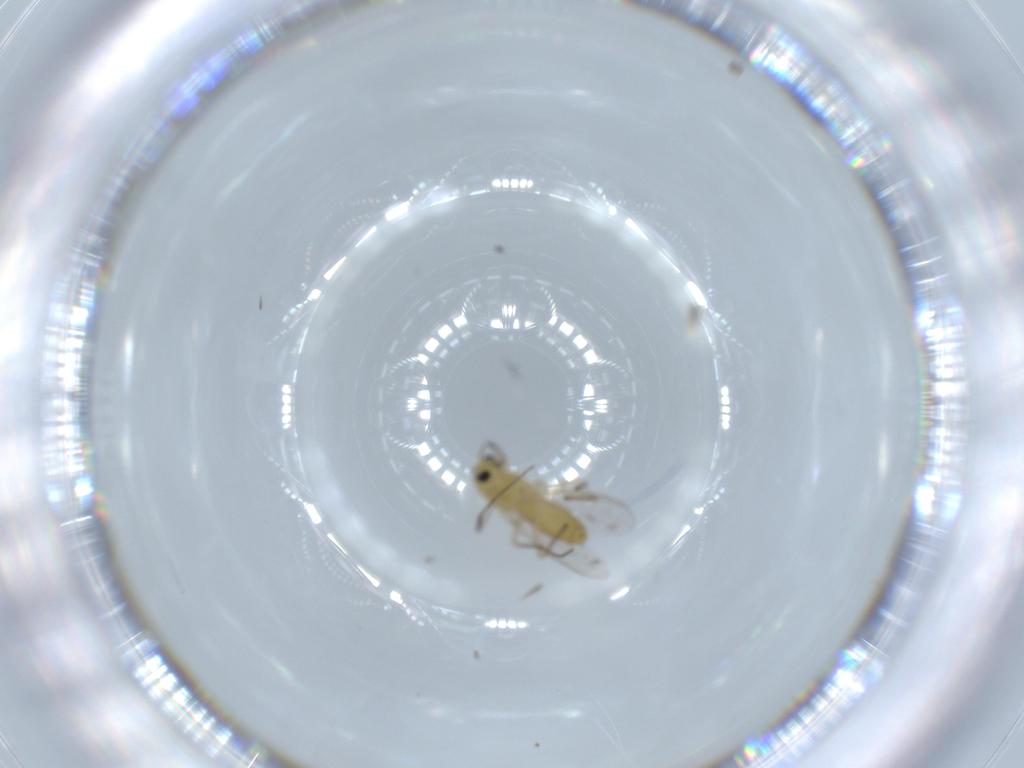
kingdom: Animalia
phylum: Arthropoda
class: Insecta
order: Diptera
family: Chironomidae
